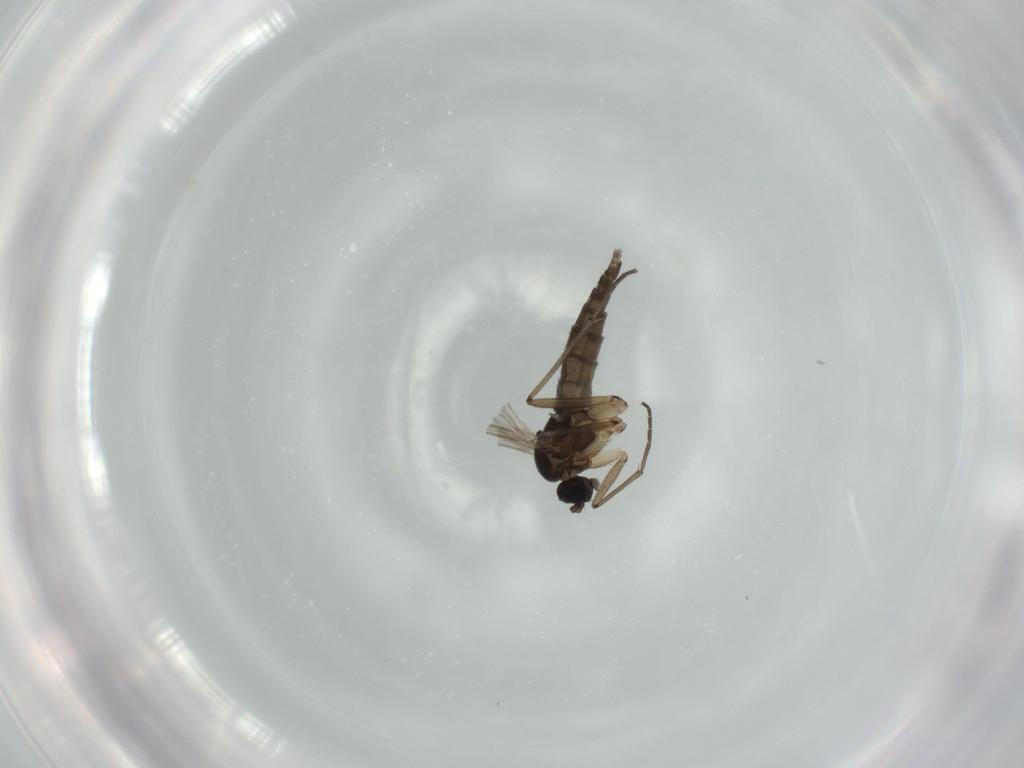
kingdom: Animalia
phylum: Arthropoda
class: Insecta
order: Diptera
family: Sciaridae
